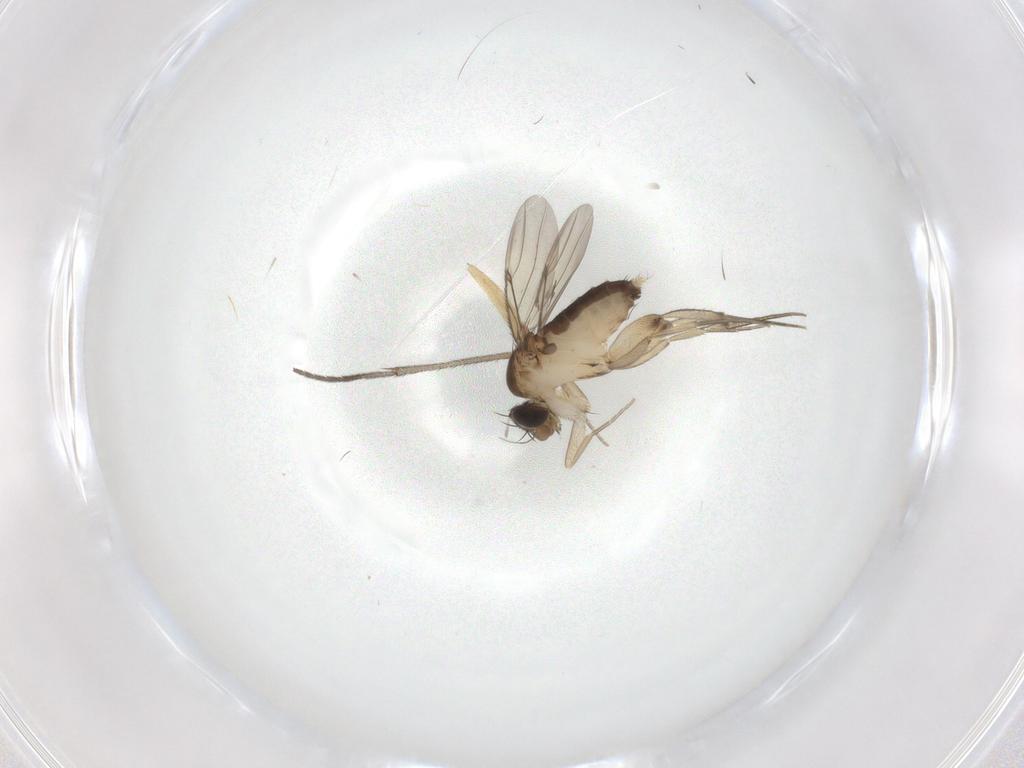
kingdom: Animalia
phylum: Arthropoda
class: Insecta
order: Diptera
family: Phoridae
